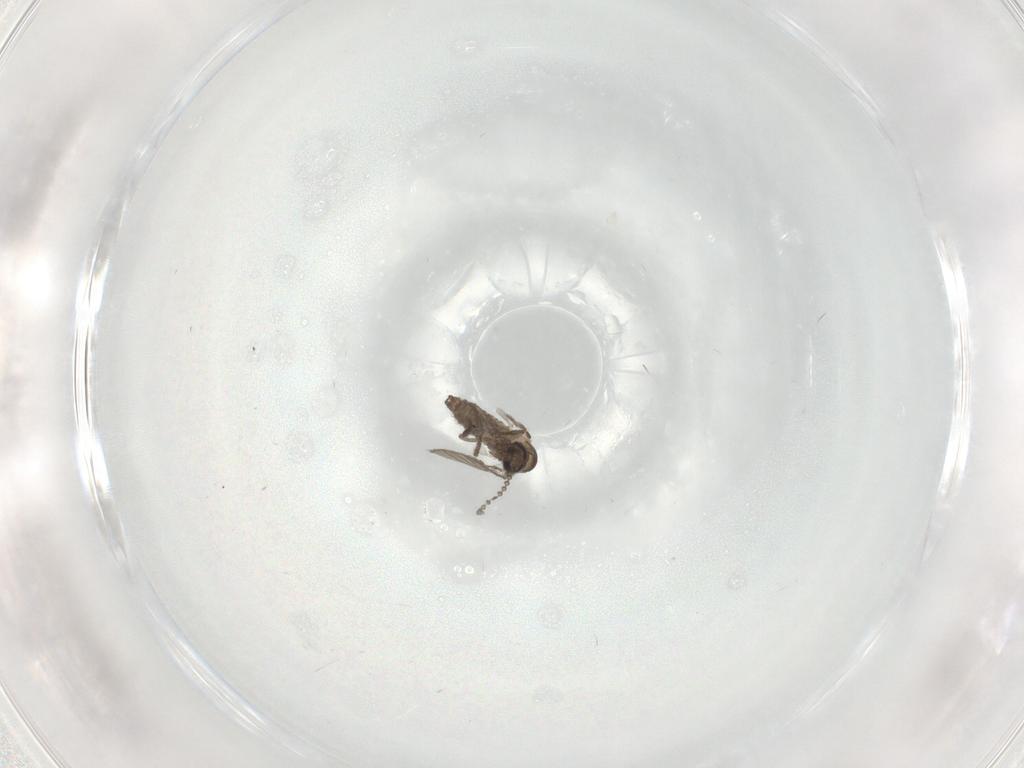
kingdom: Animalia
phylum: Arthropoda
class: Insecta
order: Diptera
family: Psychodidae
